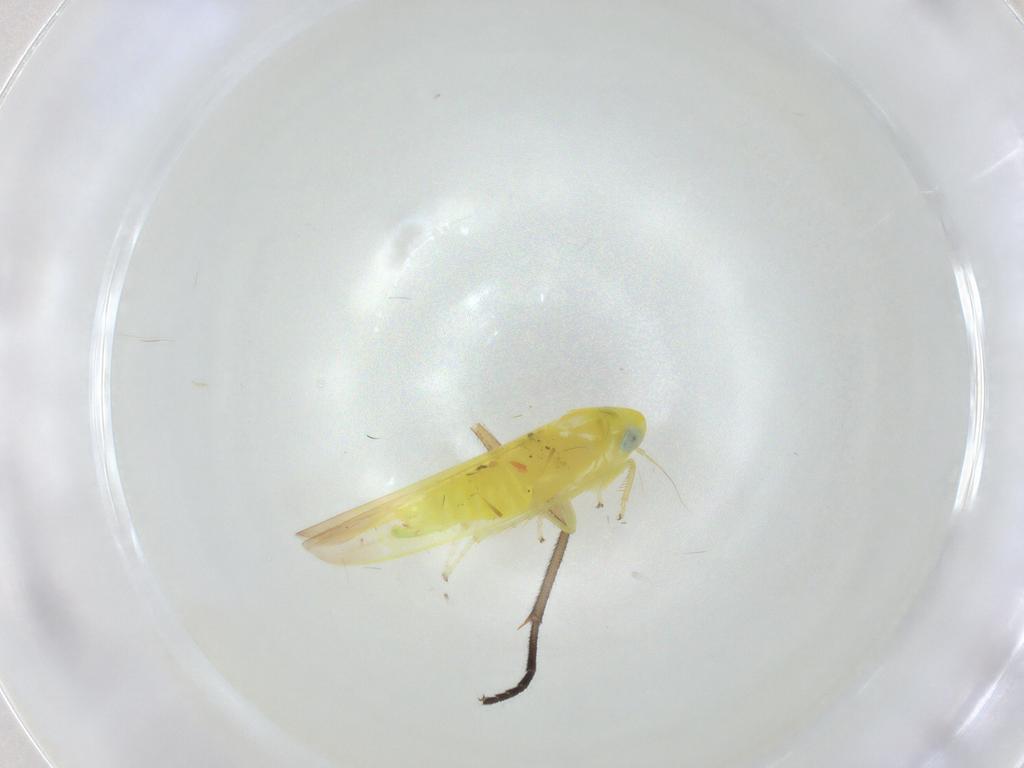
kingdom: Animalia
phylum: Arthropoda
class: Insecta
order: Hemiptera
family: Cicadellidae
